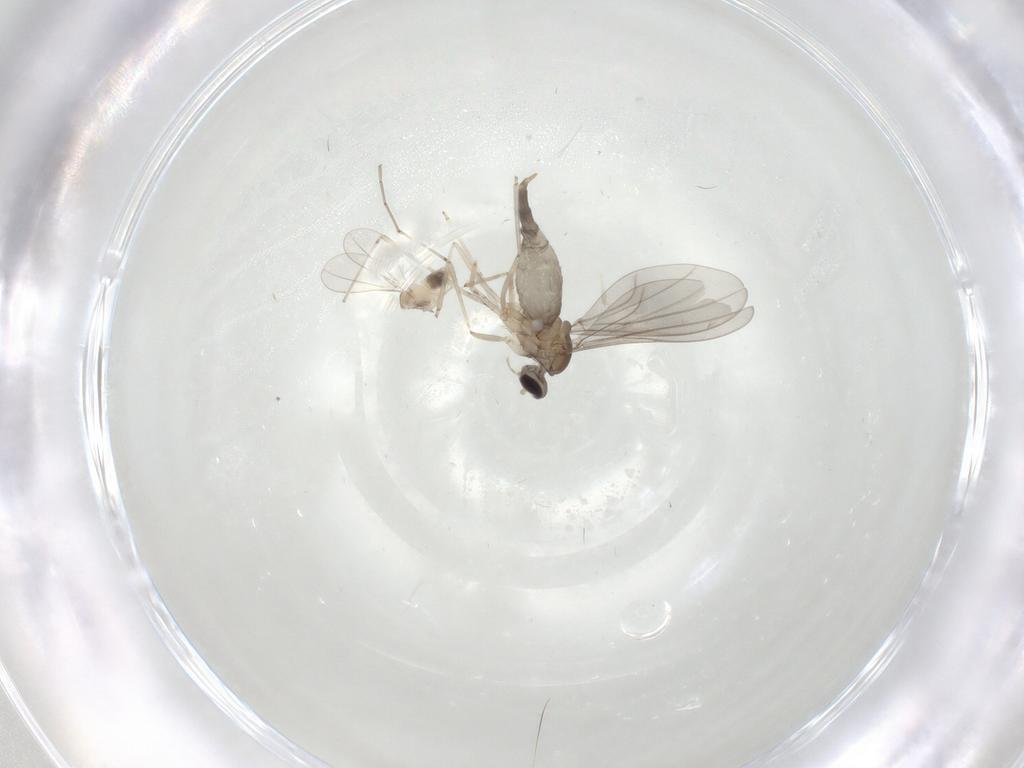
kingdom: Animalia
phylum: Arthropoda
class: Insecta
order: Diptera
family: Cecidomyiidae
